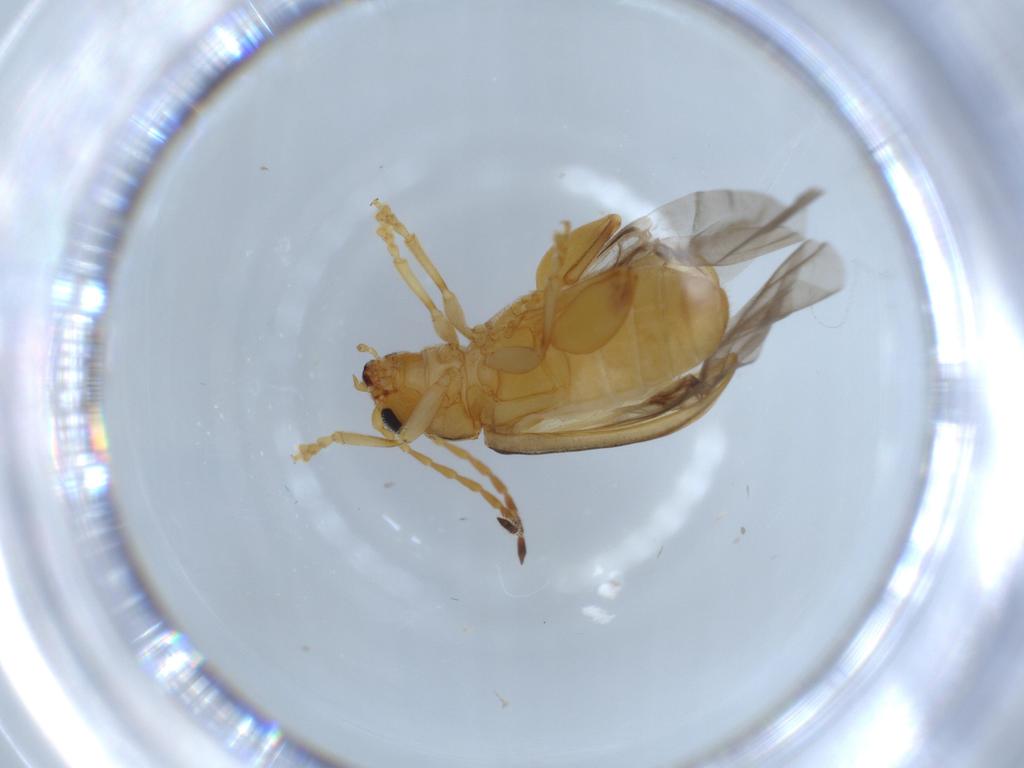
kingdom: Animalia
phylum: Arthropoda
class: Insecta
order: Coleoptera
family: Chrysomelidae
